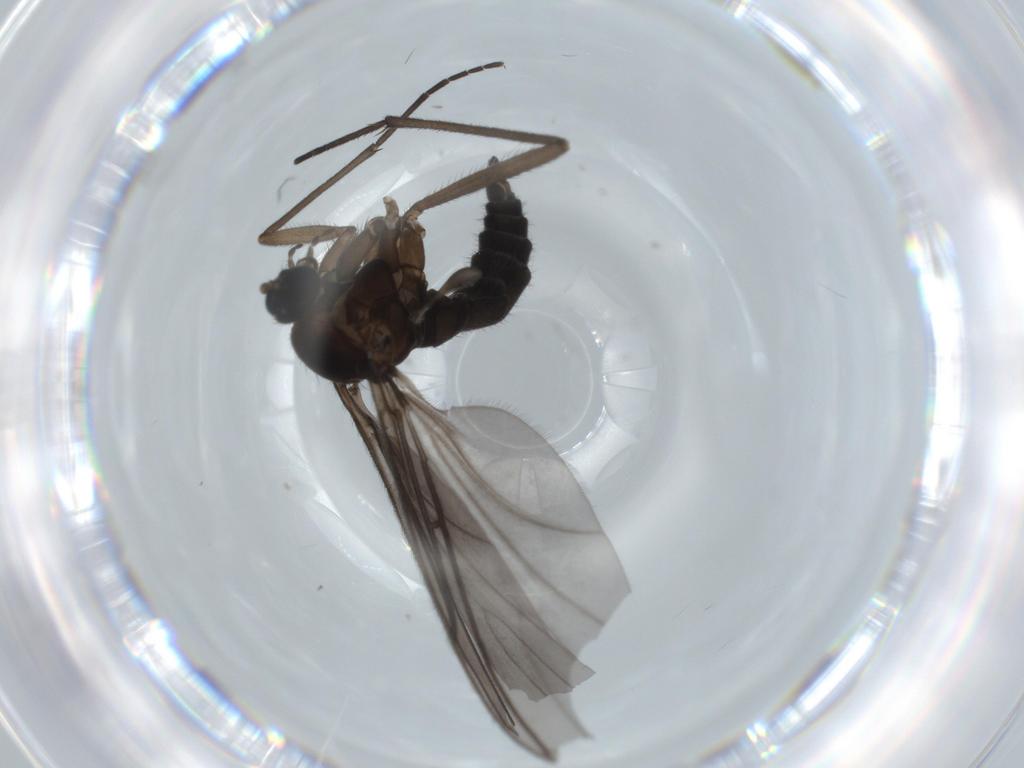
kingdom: Animalia
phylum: Arthropoda
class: Insecta
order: Diptera
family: Sciaridae
